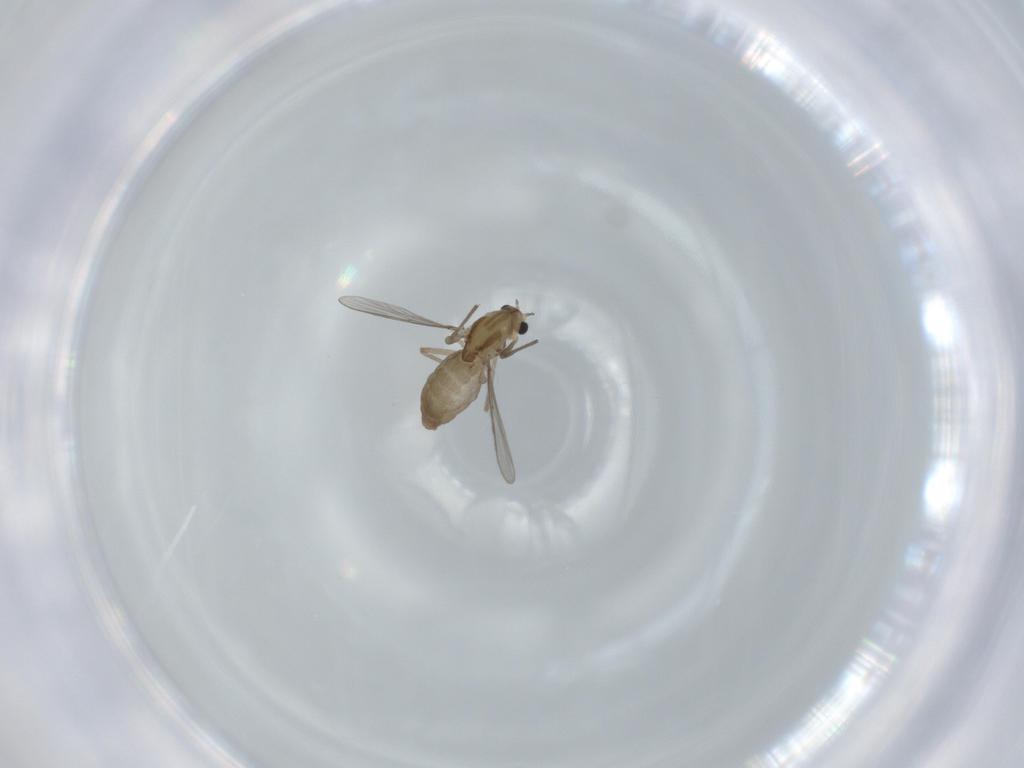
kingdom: Animalia
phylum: Arthropoda
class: Insecta
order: Diptera
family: Chironomidae
